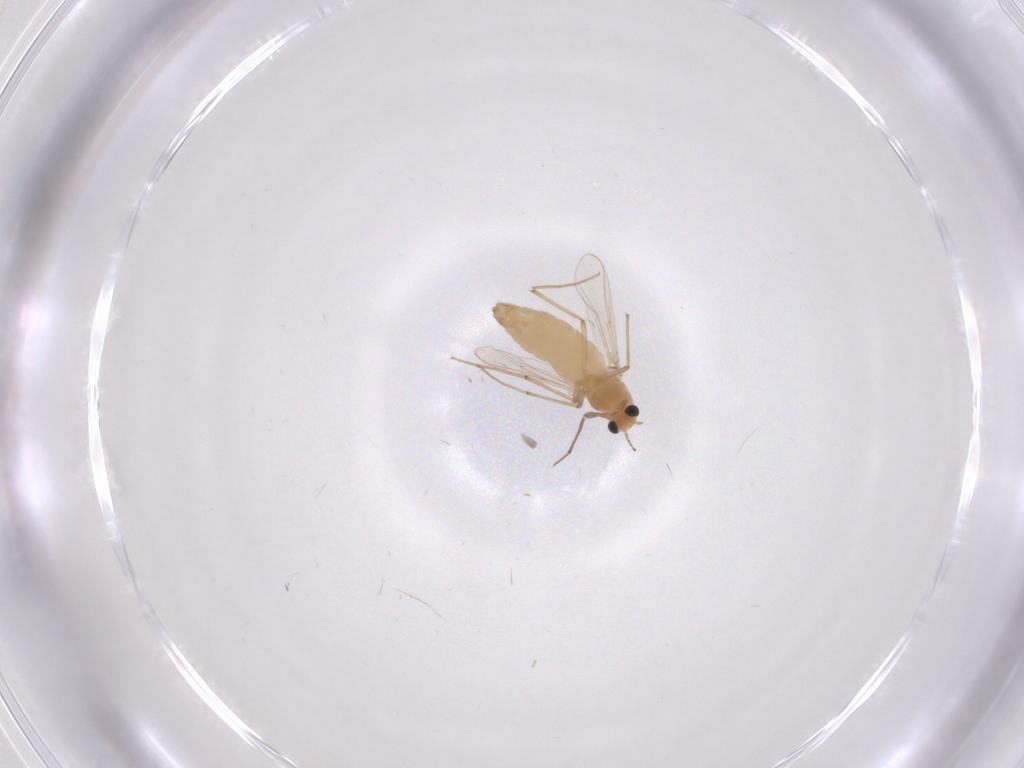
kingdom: Animalia
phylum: Arthropoda
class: Insecta
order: Diptera
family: Chironomidae
